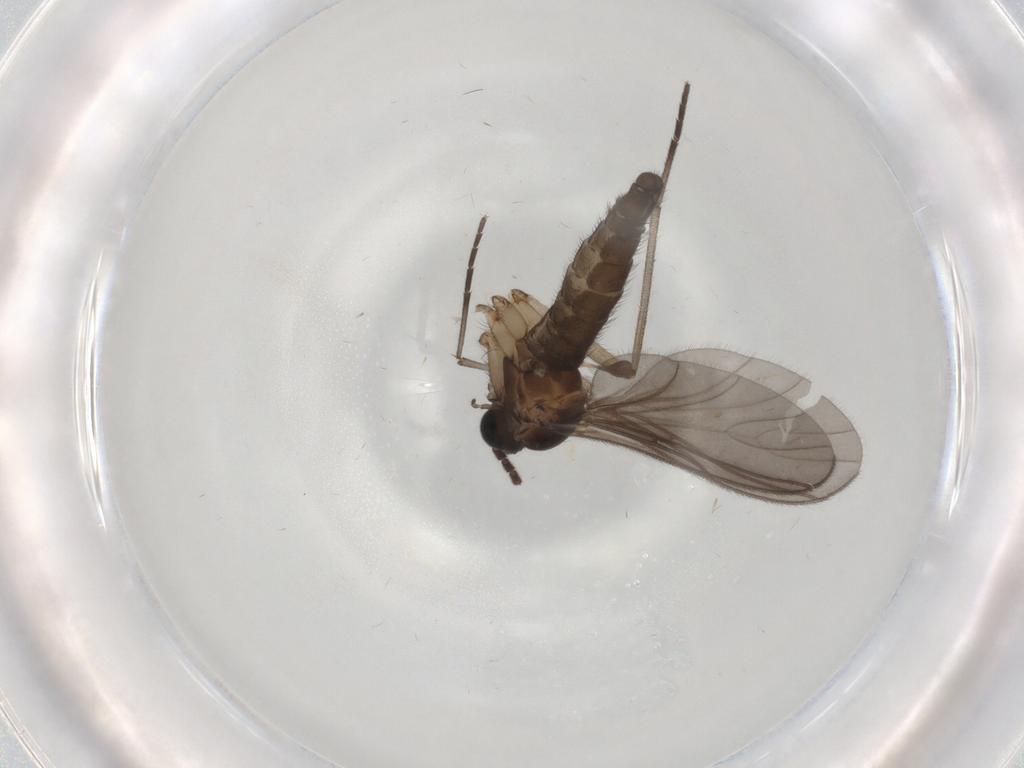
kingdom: Animalia
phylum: Arthropoda
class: Insecta
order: Diptera
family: Sciaridae
